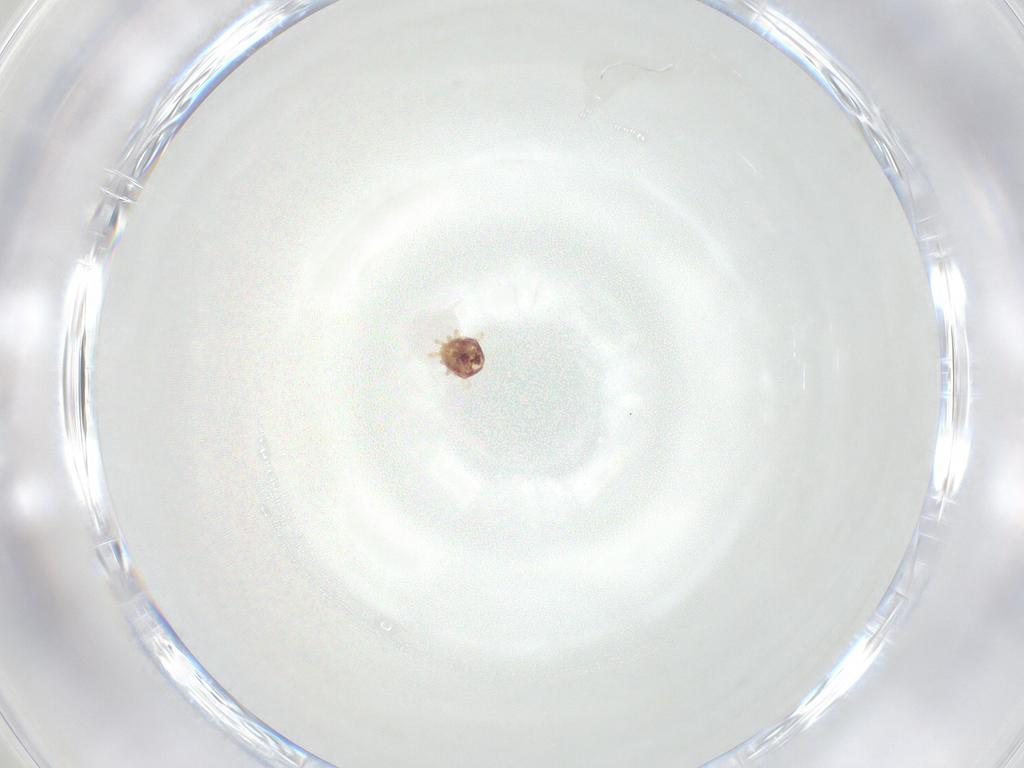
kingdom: Animalia
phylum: Arthropoda
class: Arachnida
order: Mesostigmata
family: Phytoseiidae
